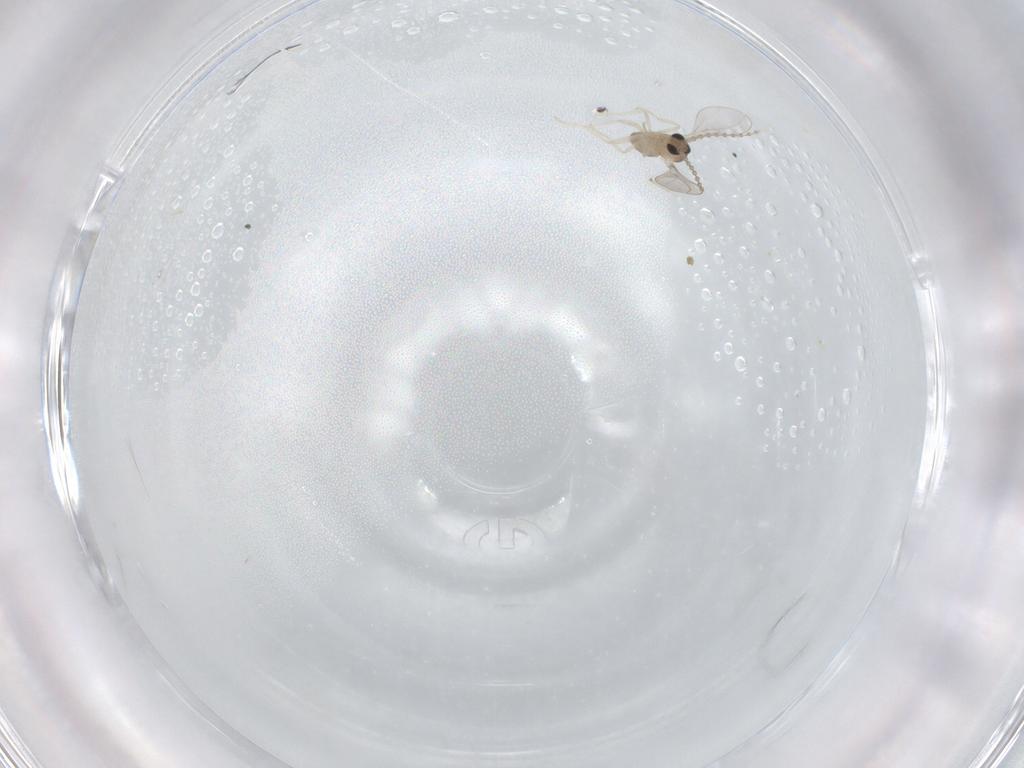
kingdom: Animalia
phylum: Arthropoda
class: Insecta
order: Diptera
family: Cecidomyiidae
